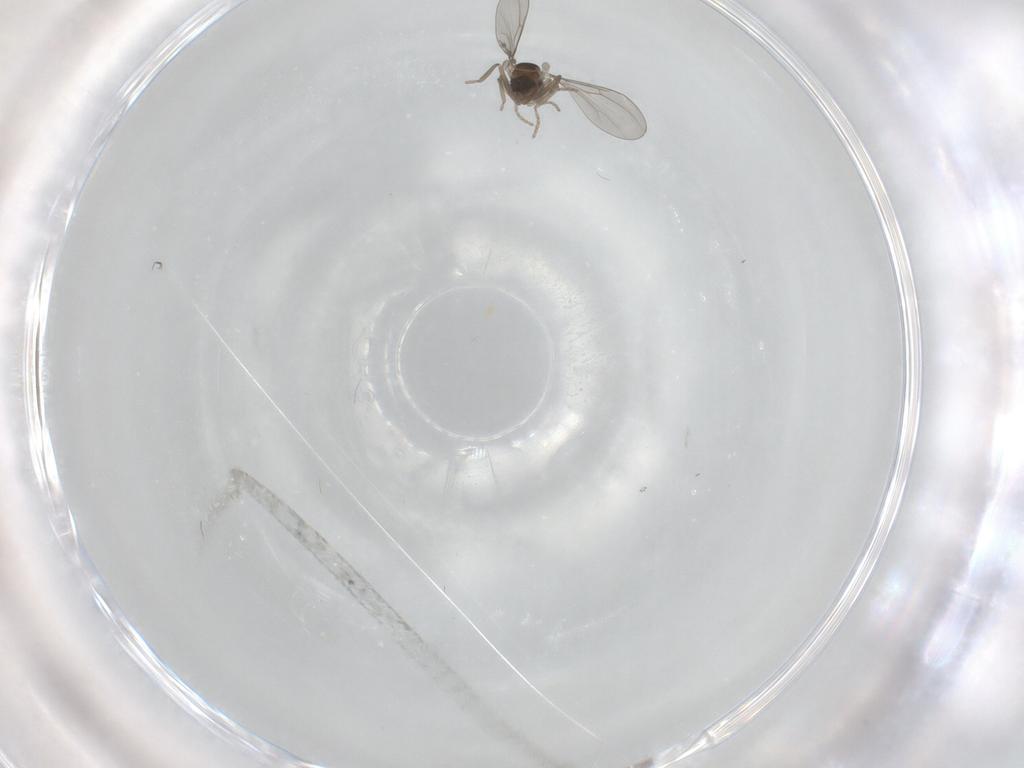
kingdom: Animalia
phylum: Arthropoda
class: Insecta
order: Diptera
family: Cecidomyiidae
